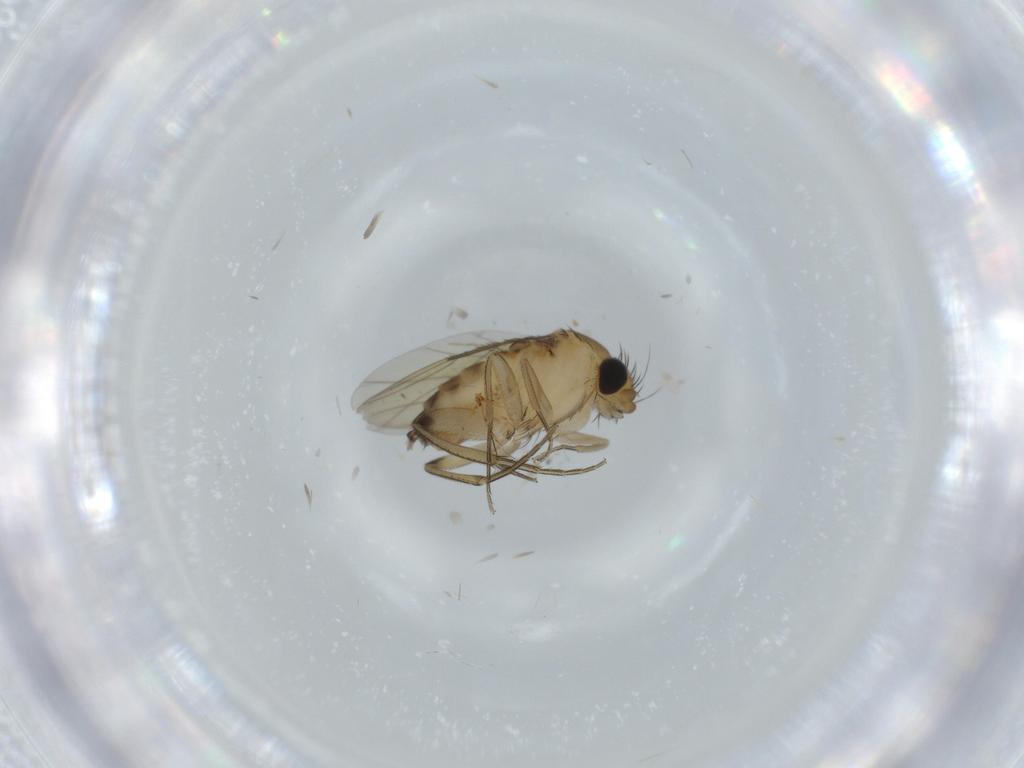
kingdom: Animalia
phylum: Arthropoda
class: Insecta
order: Diptera
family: Phoridae
